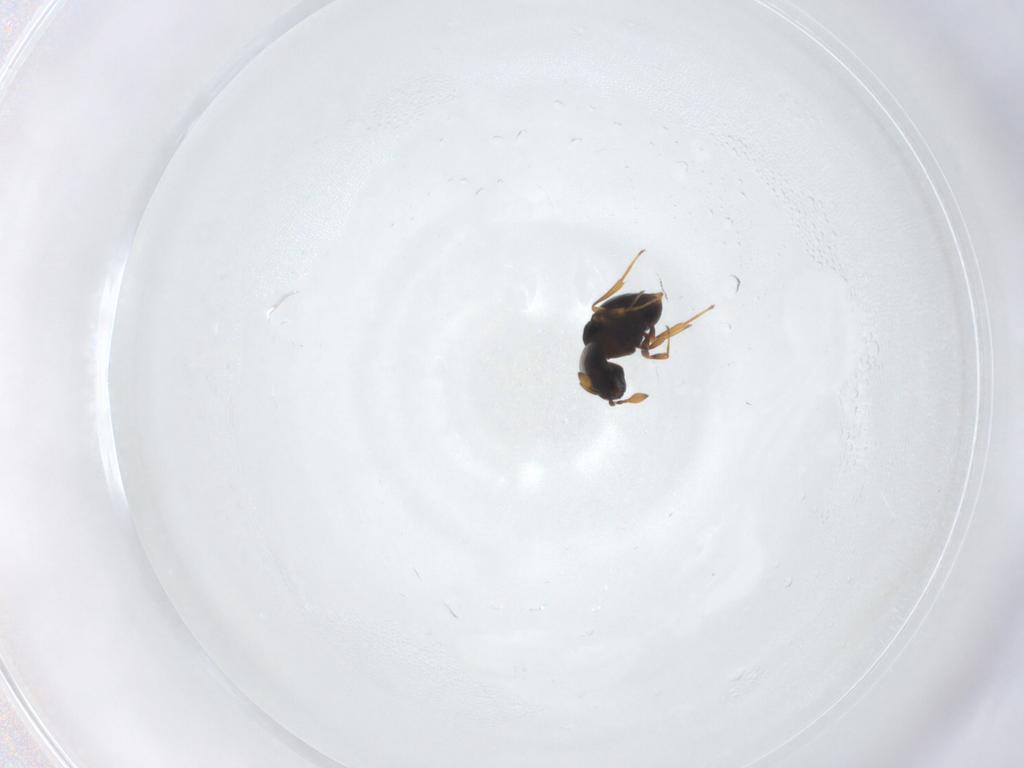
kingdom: Animalia
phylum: Arthropoda
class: Insecta
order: Hymenoptera
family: Scelionidae
